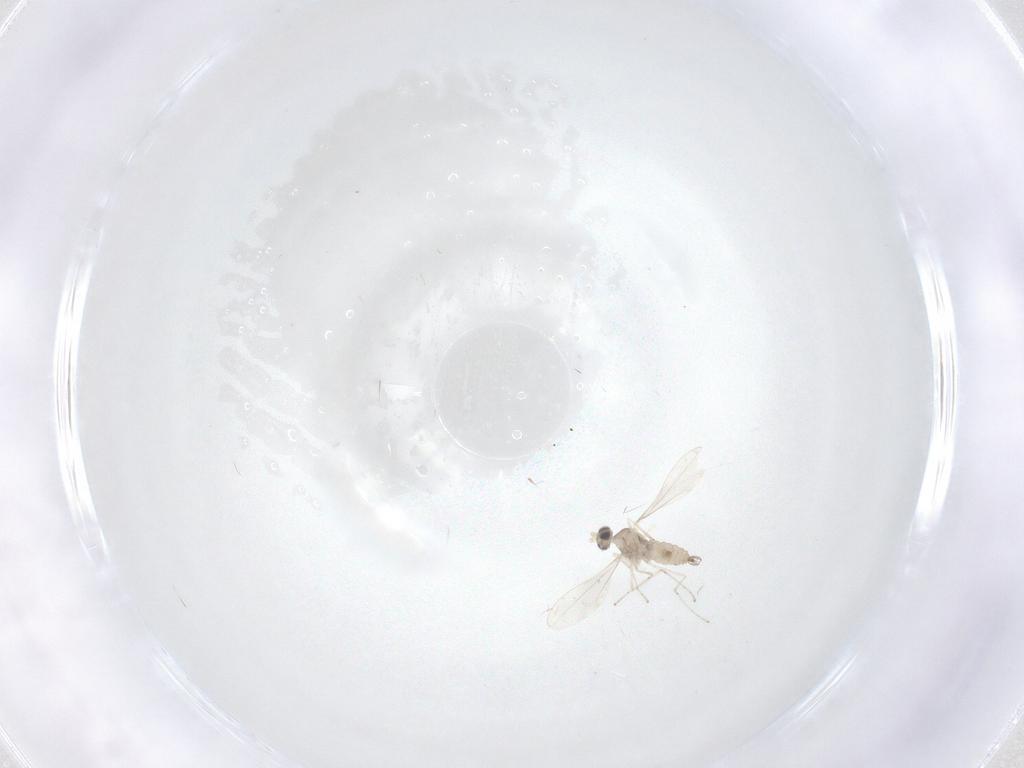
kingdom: Animalia
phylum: Arthropoda
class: Insecta
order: Diptera
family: Cecidomyiidae
